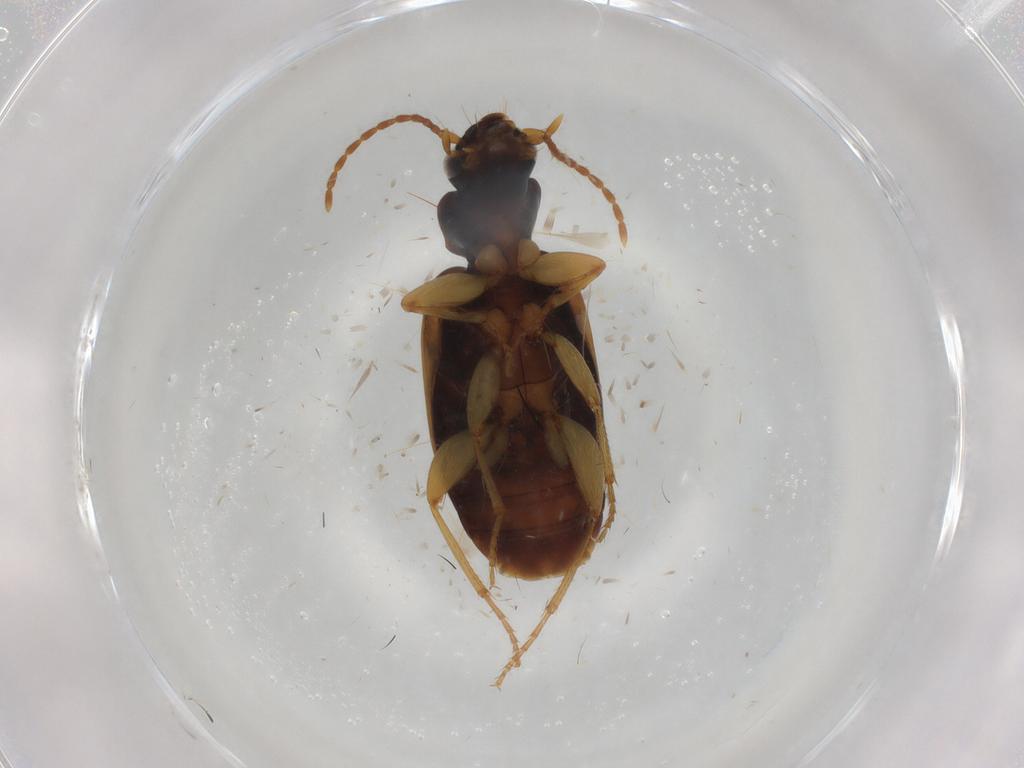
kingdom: Animalia
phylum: Arthropoda
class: Insecta
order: Coleoptera
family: Carabidae
